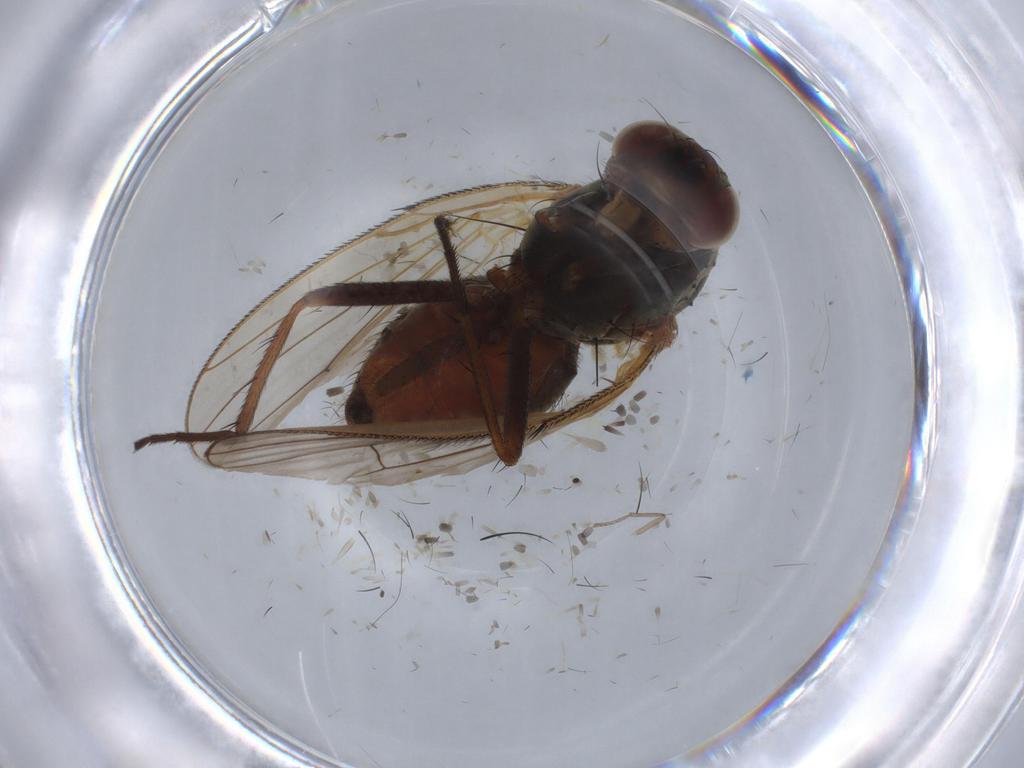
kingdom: Animalia
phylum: Arthropoda
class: Insecta
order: Diptera
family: Anthomyiidae
